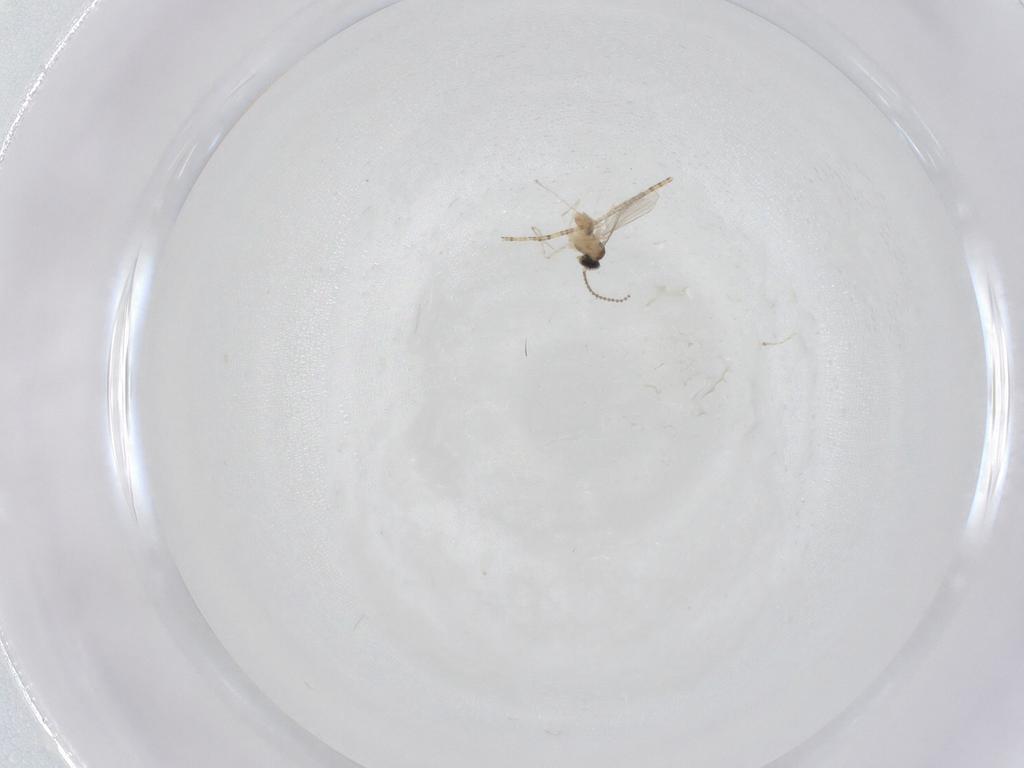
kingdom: Animalia
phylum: Arthropoda
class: Insecta
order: Diptera
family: Cecidomyiidae
